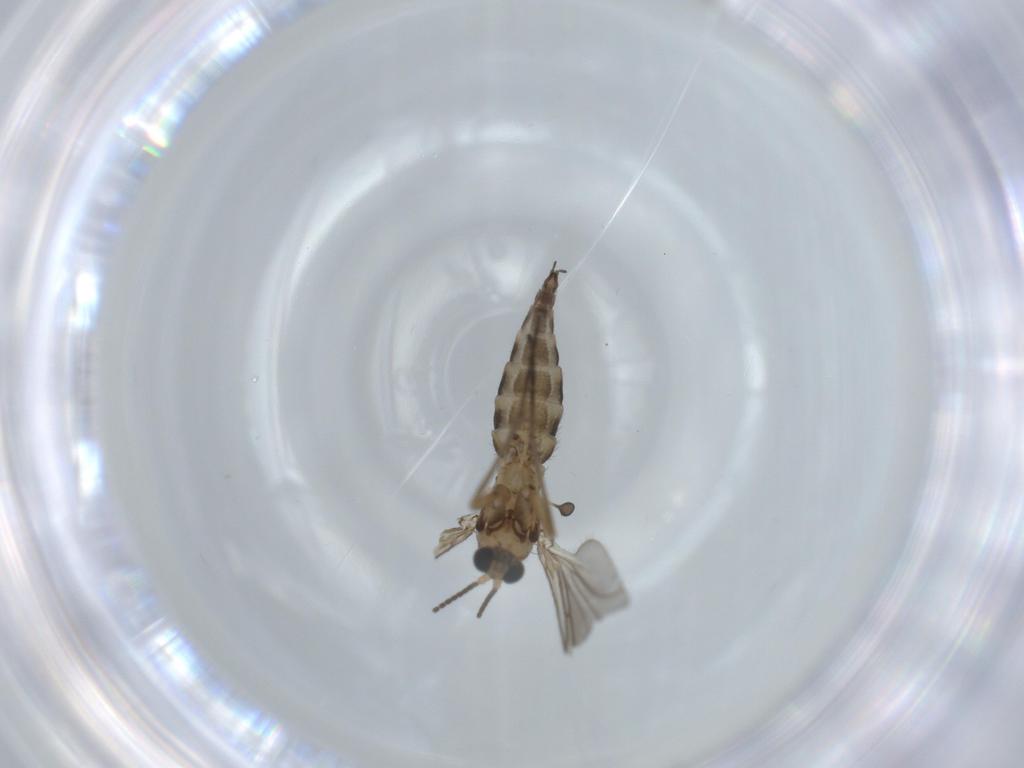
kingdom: Animalia
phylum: Arthropoda
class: Insecta
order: Diptera
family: Sciaridae
